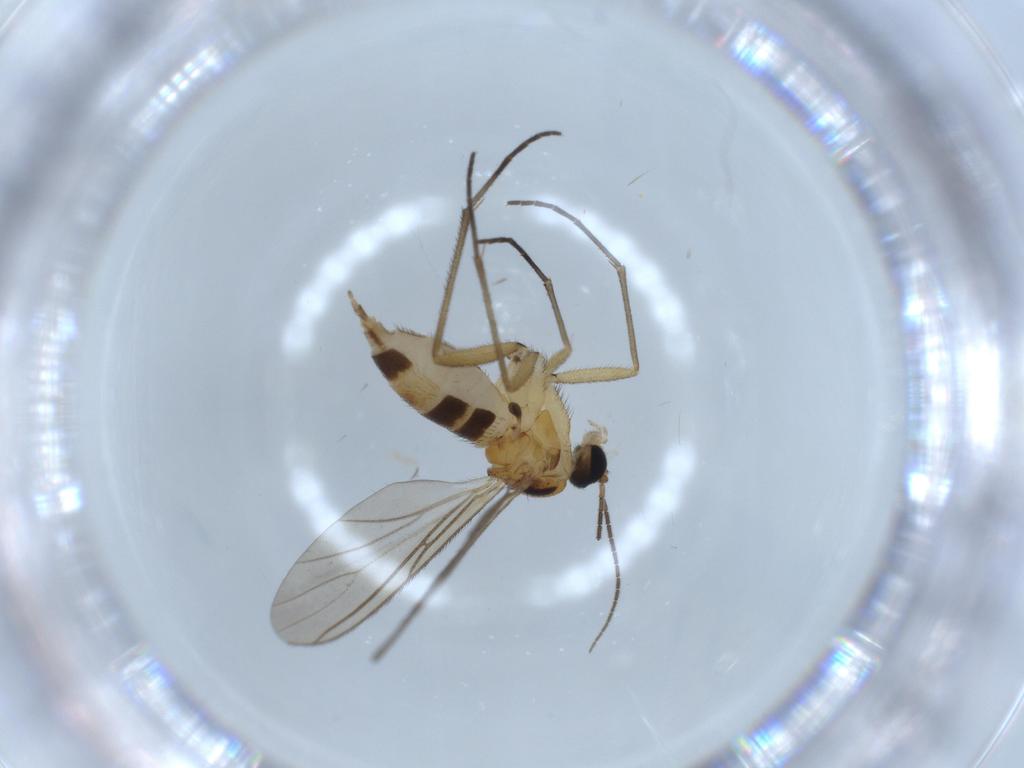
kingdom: Animalia
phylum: Arthropoda
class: Insecta
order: Diptera
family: Sciaridae
